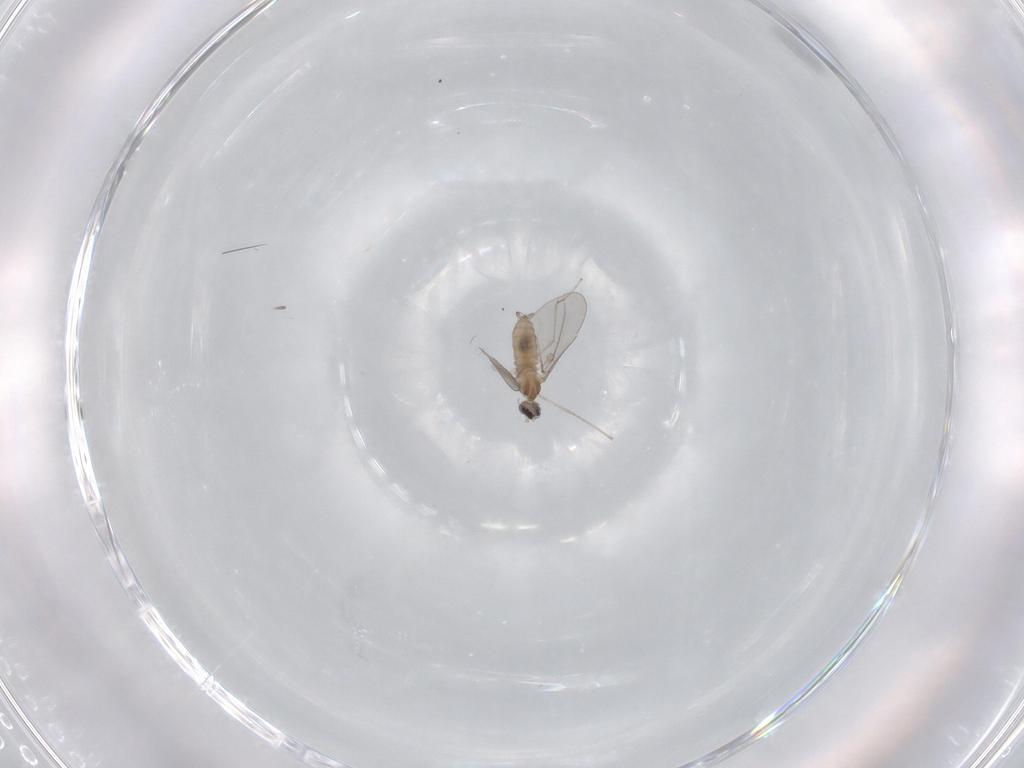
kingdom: Animalia
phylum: Arthropoda
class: Insecta
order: Diptera
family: Cecidomyiidae
